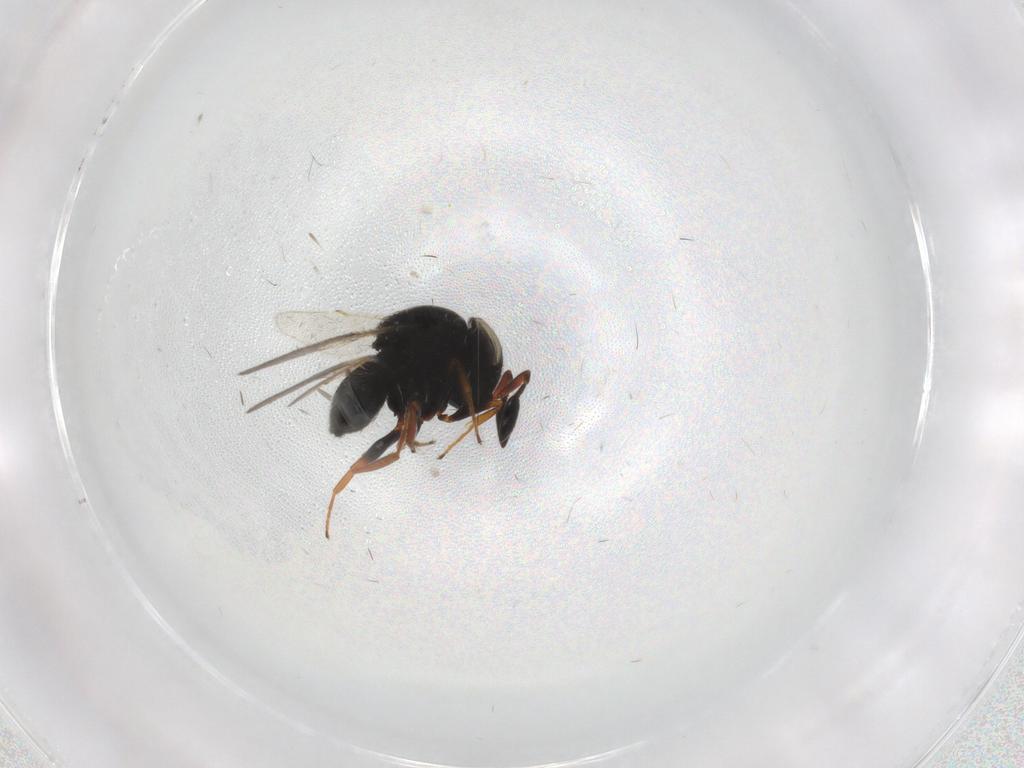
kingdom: Animalia
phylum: Arthropoda
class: Insecta
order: Hymenoptera
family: Scelionidae
